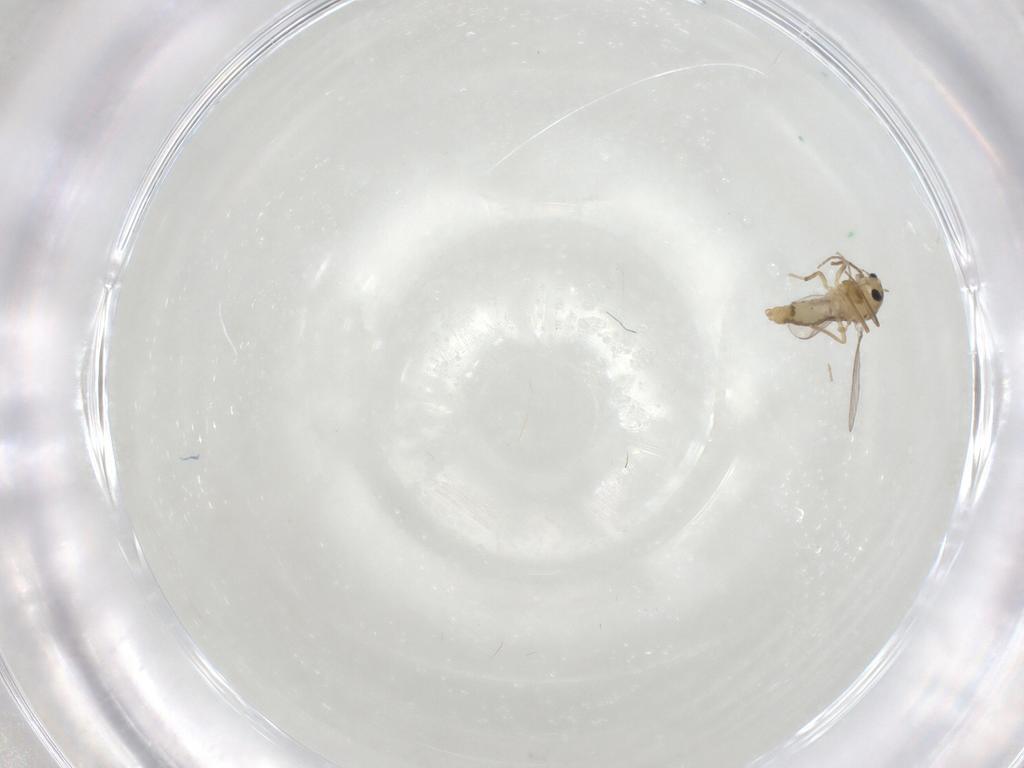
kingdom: Animalia
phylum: Arthropoda
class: Insecta
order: Diptera
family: Chironomidae
